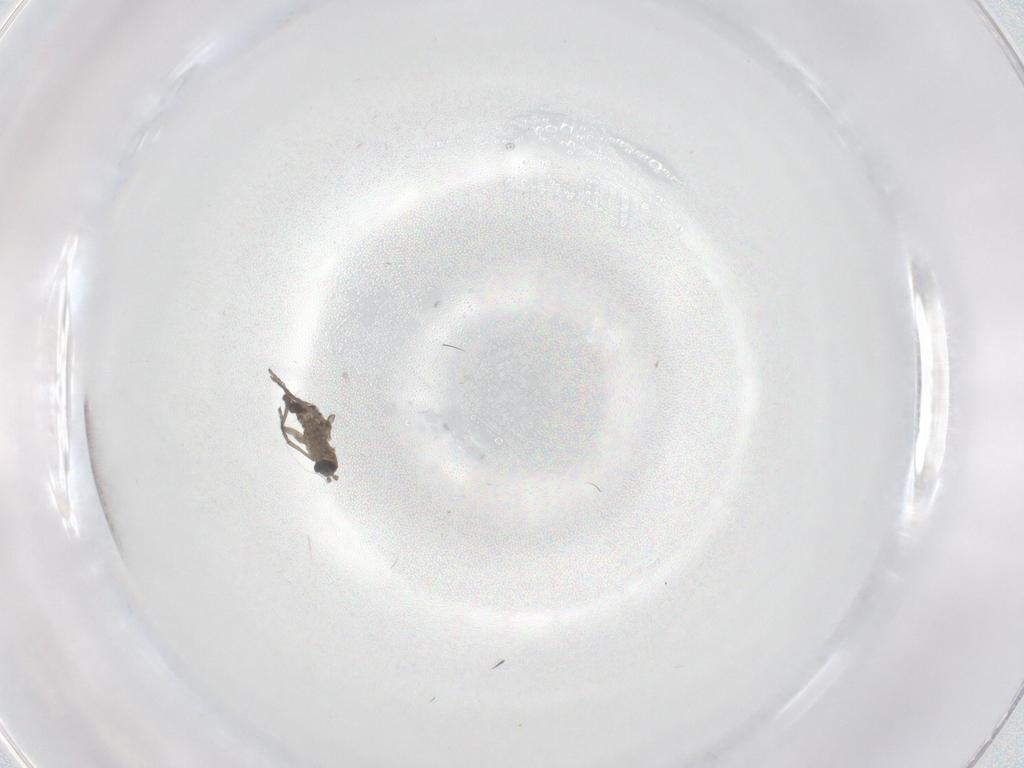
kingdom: Animalia
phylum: Arthropoda
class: Insecta
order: Diptera
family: Sciaridae
